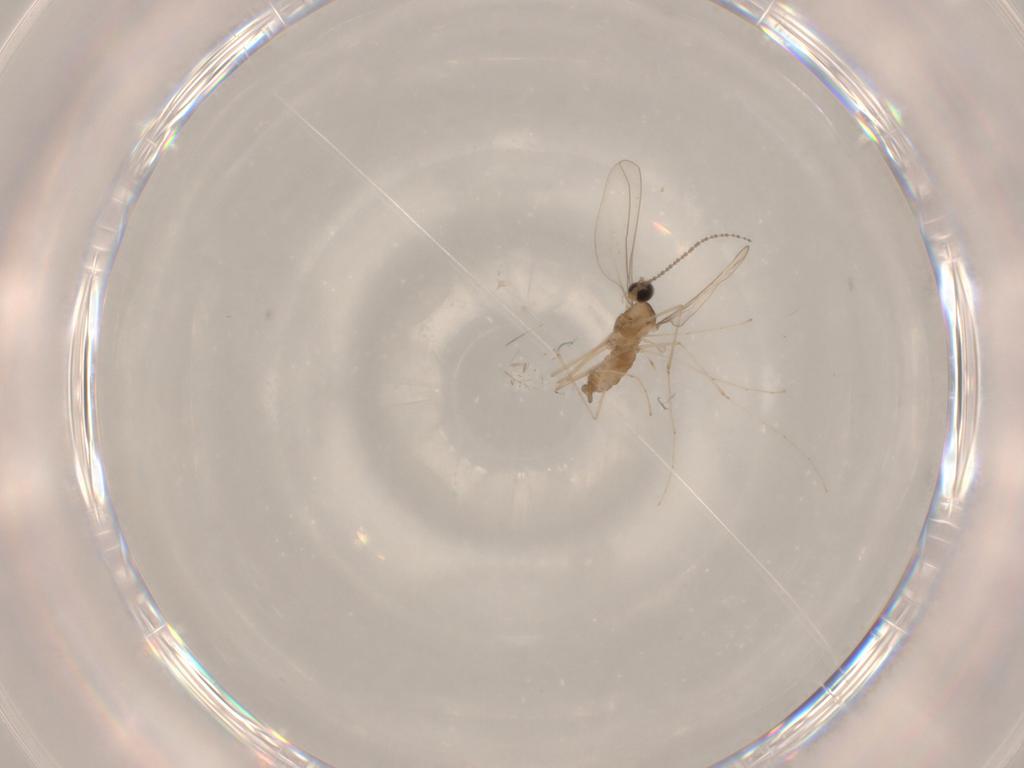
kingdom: Animalia
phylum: Arthropoda
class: Insecta
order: Diptera
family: Cecidomyiidae
